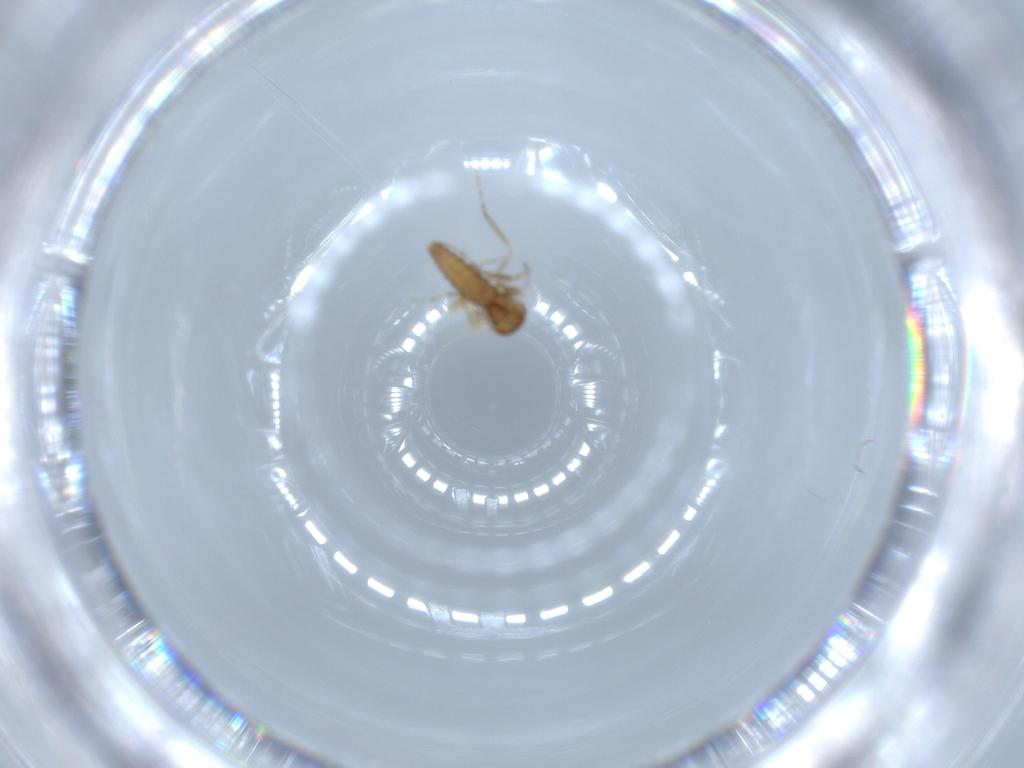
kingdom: Animalia
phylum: Arthropoda
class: Insecta
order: Diptera
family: Ceratopogonidae
